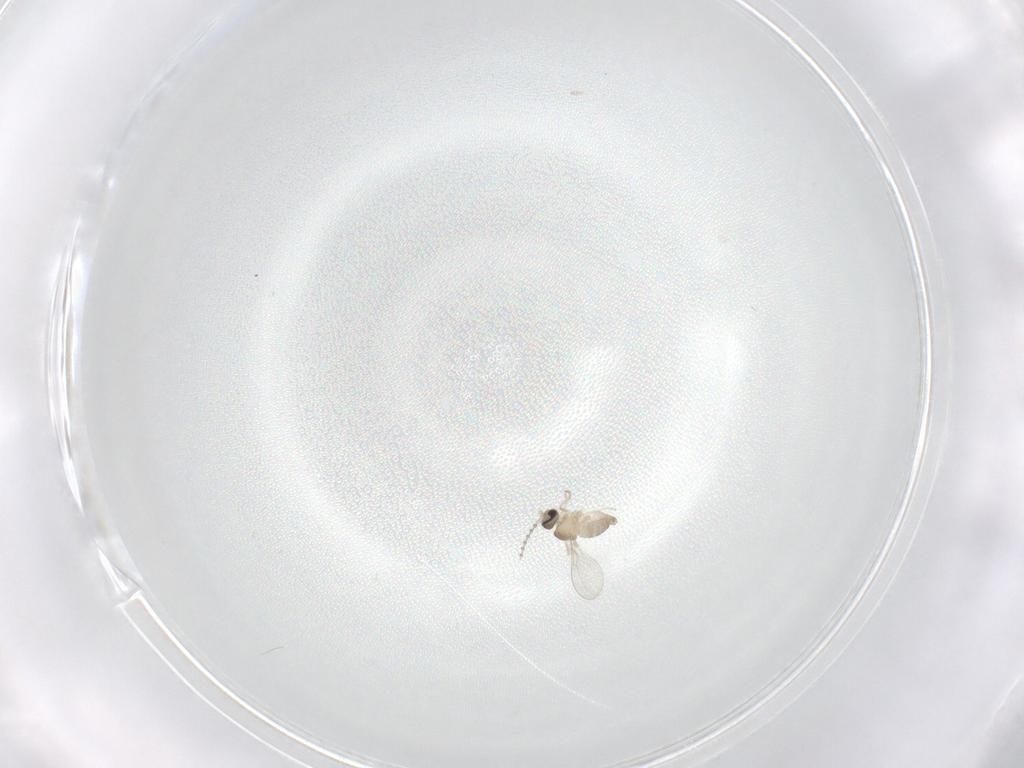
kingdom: Animalia
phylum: Arthropoda
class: Insecta
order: Diptera
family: Cecidomyiidae
